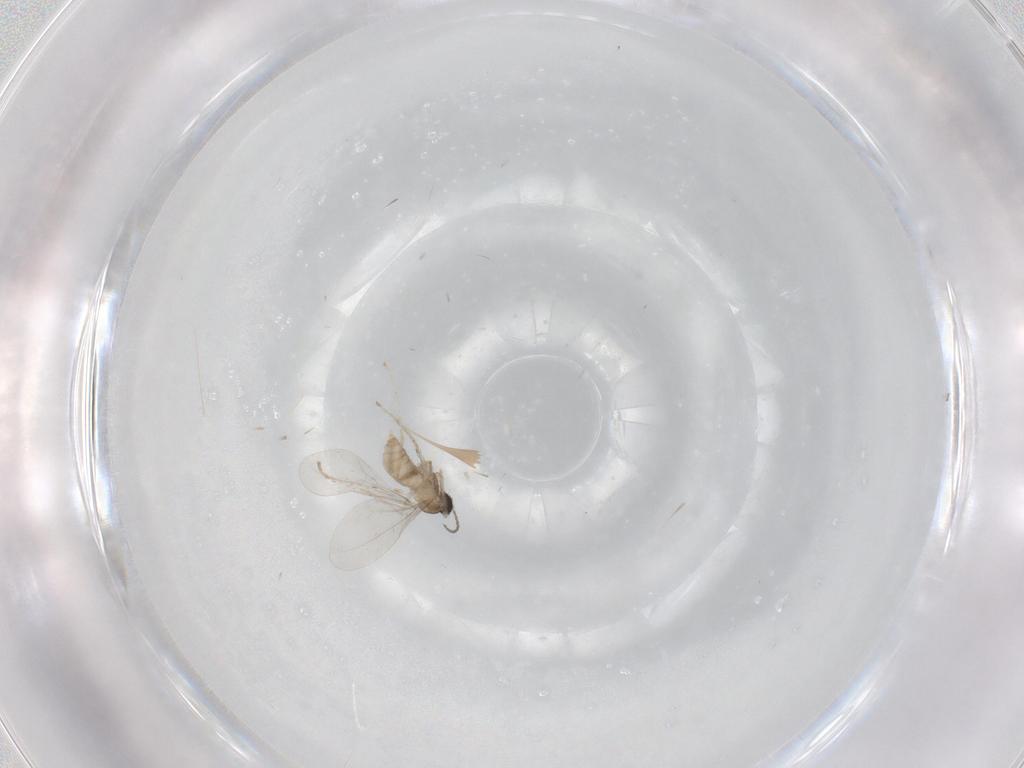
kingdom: Animalia
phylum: Arthropoda
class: Insecta
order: Diptera
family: Cecidomyiidae
